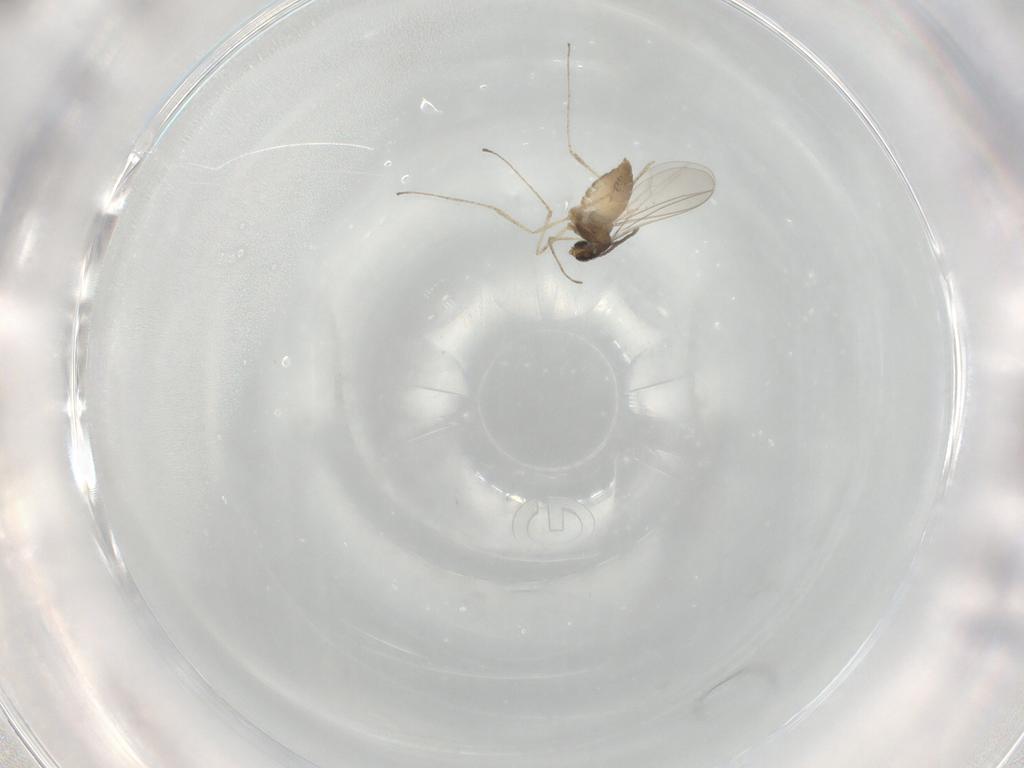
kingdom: Animalia
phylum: Arthropoda
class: Insecta
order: Diptera
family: Cecidomyiidae
